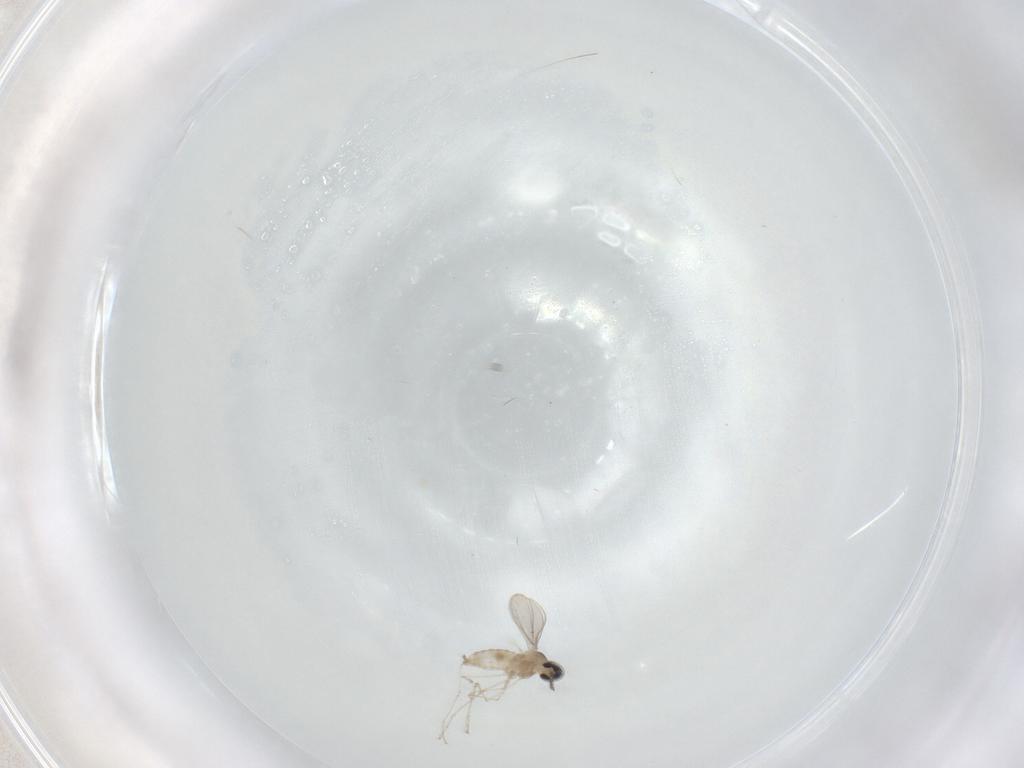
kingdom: Animalia
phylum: Arthropoda
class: Insecta
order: Diptera
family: Cecidomyiidae
